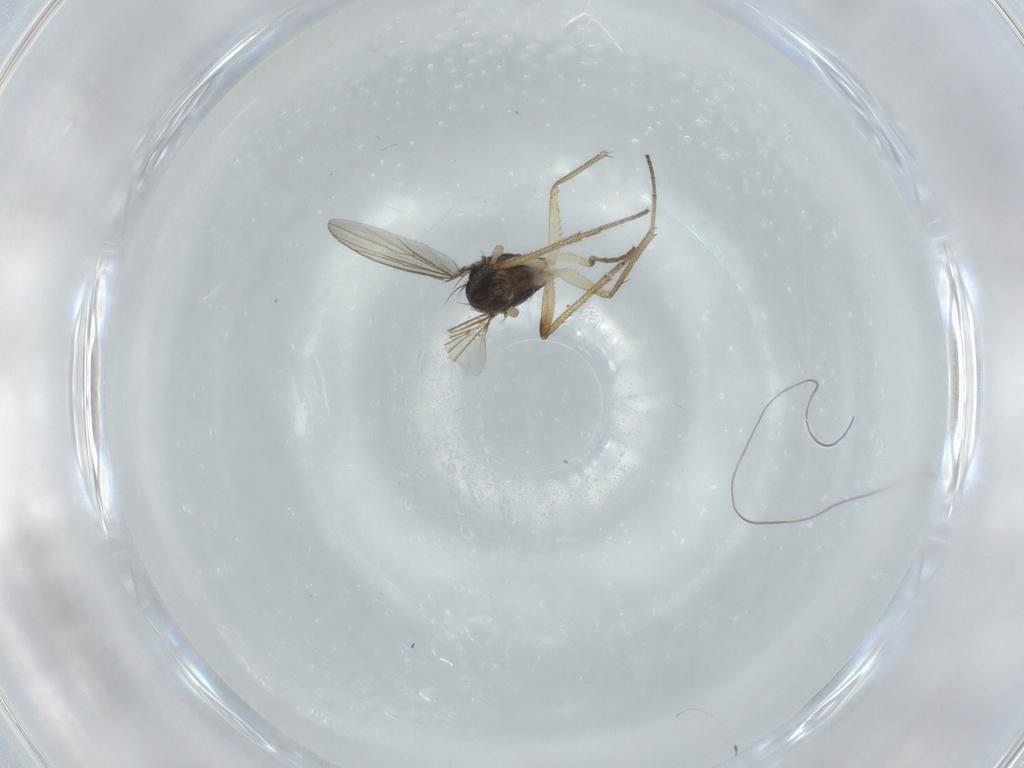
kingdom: Animalia
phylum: Arthropoda
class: Insecta
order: Diptera
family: Dolichopodidae
